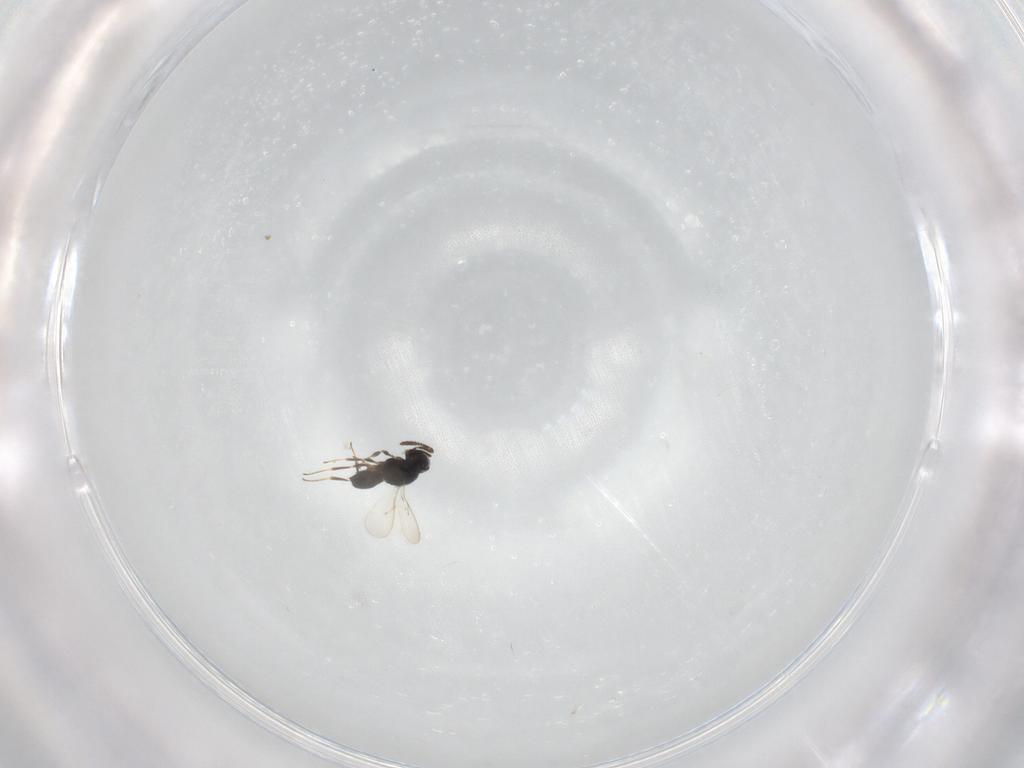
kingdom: Animalia
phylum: Arthropoda
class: Insecta
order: Hymenoptera
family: Scelionidae
